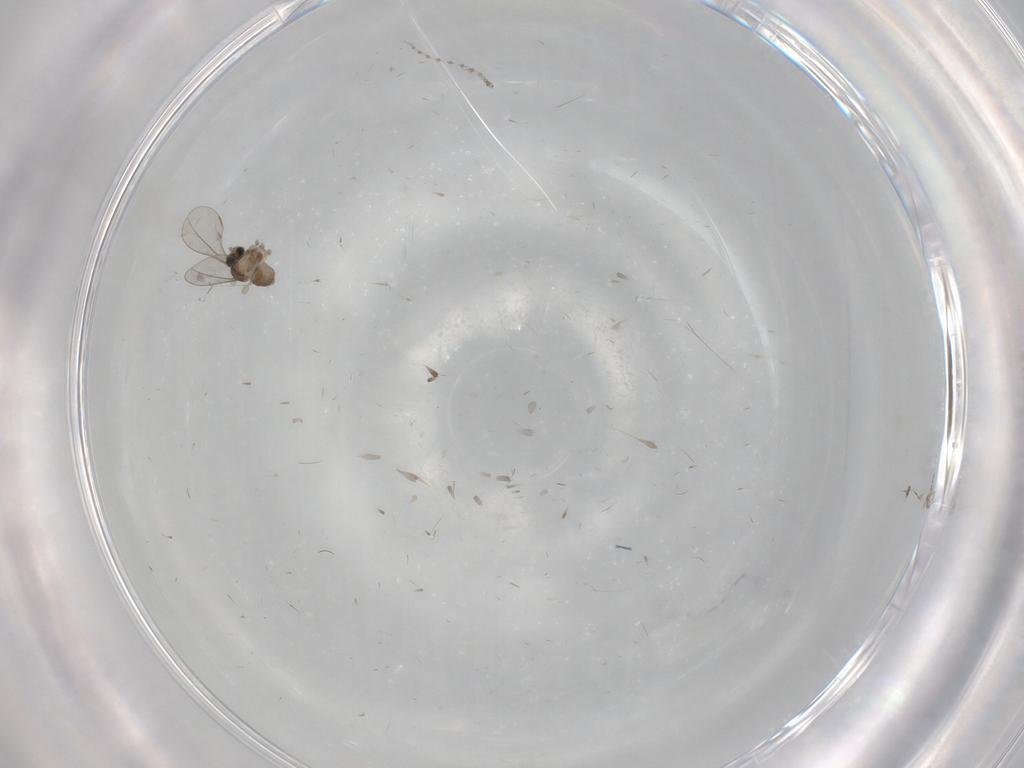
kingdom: Animalia
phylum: Arthropoda
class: Insecta
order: Diptera
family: Cecidomyiidae
